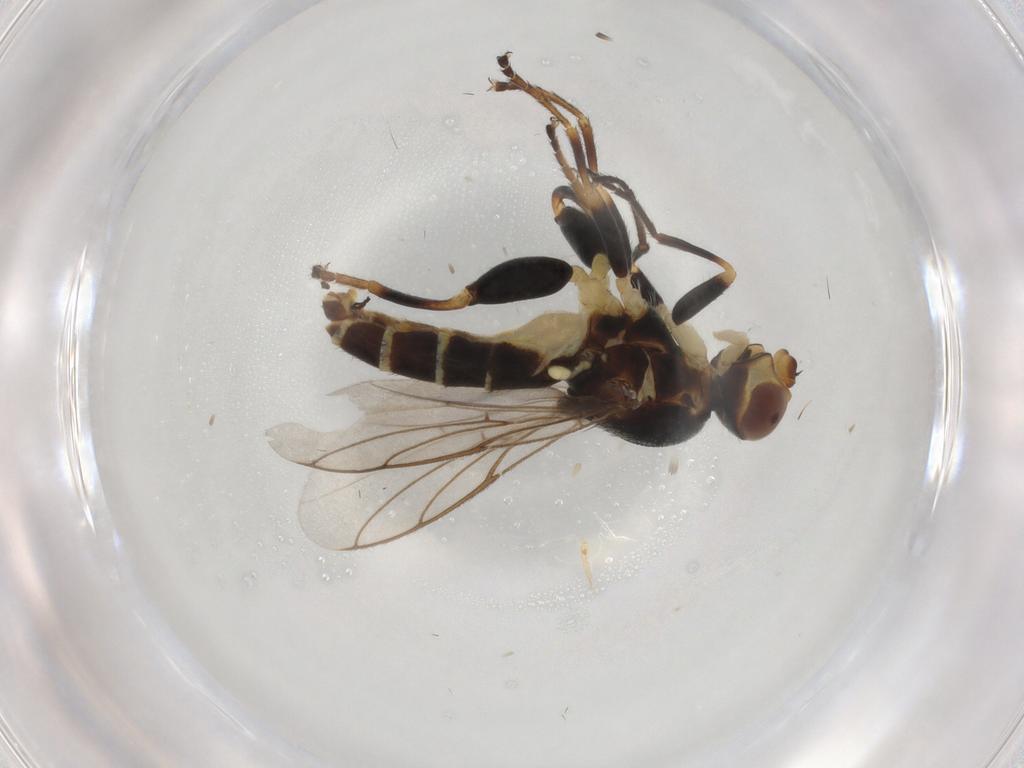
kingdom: Animalia
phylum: Arthropoda
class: Insecta
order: Diptera
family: Chloropidae
